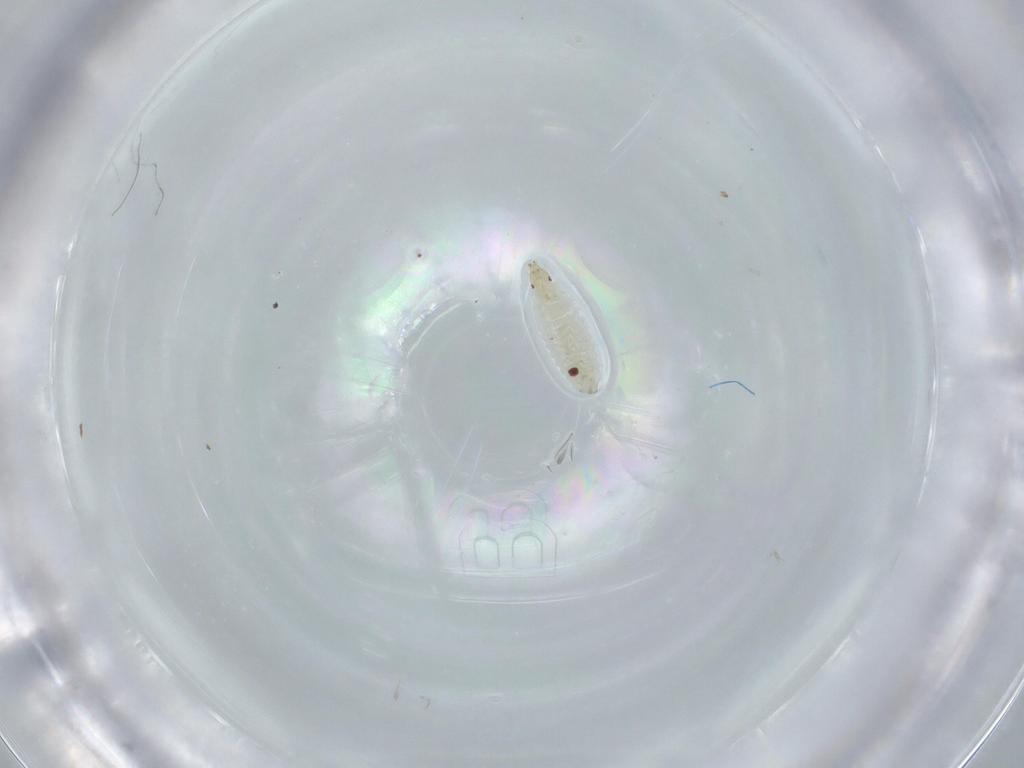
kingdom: Animalia
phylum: Arthropoda
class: Insecta
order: Diptera
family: Stratiomyidae
